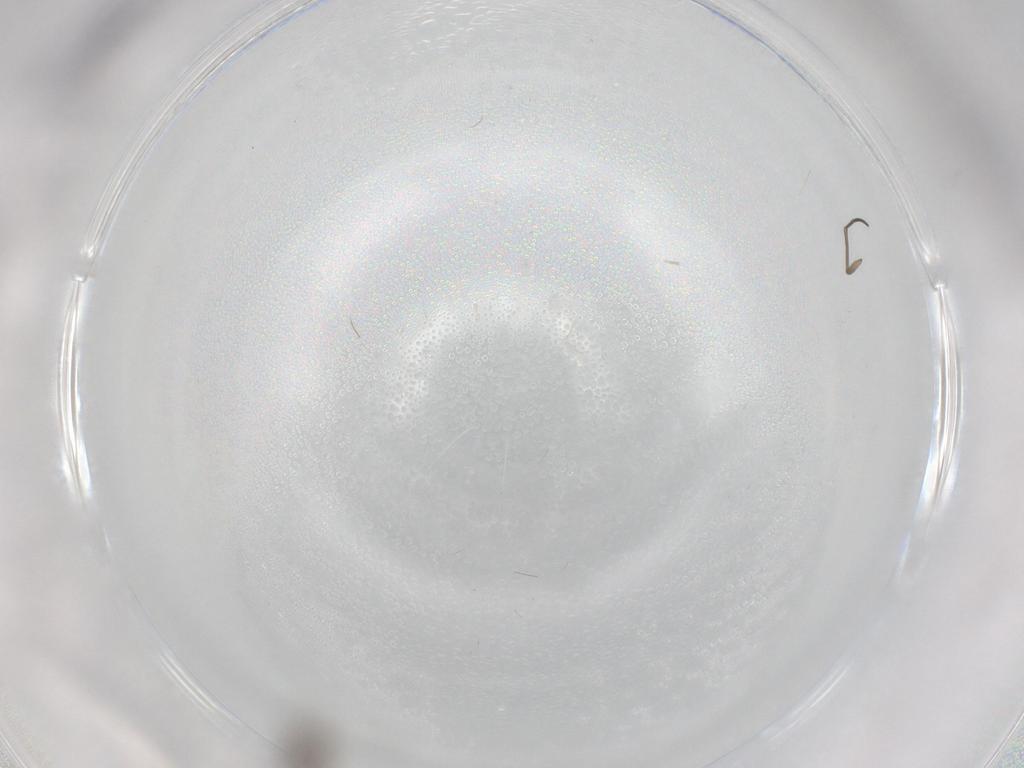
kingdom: Animalia
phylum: Arthropoda
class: Insecta
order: Diptera
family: Cecidomyiidae
